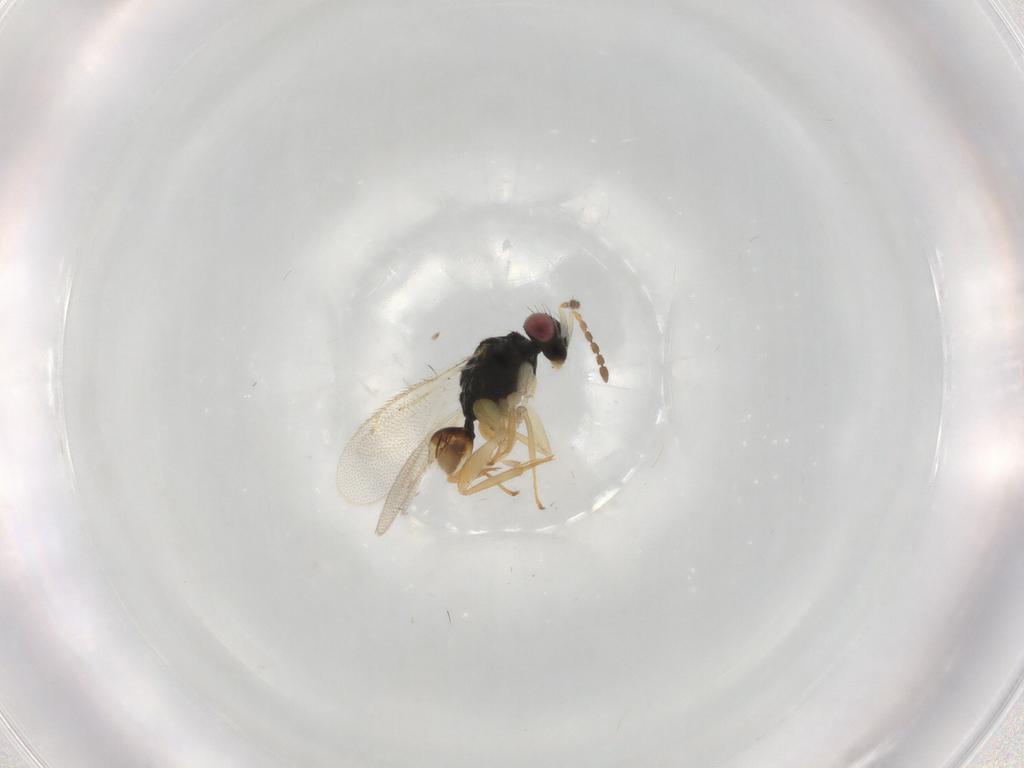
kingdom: Animalia
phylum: Arthropoda
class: Insecta
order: Hymenoptera
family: Eulophidae
